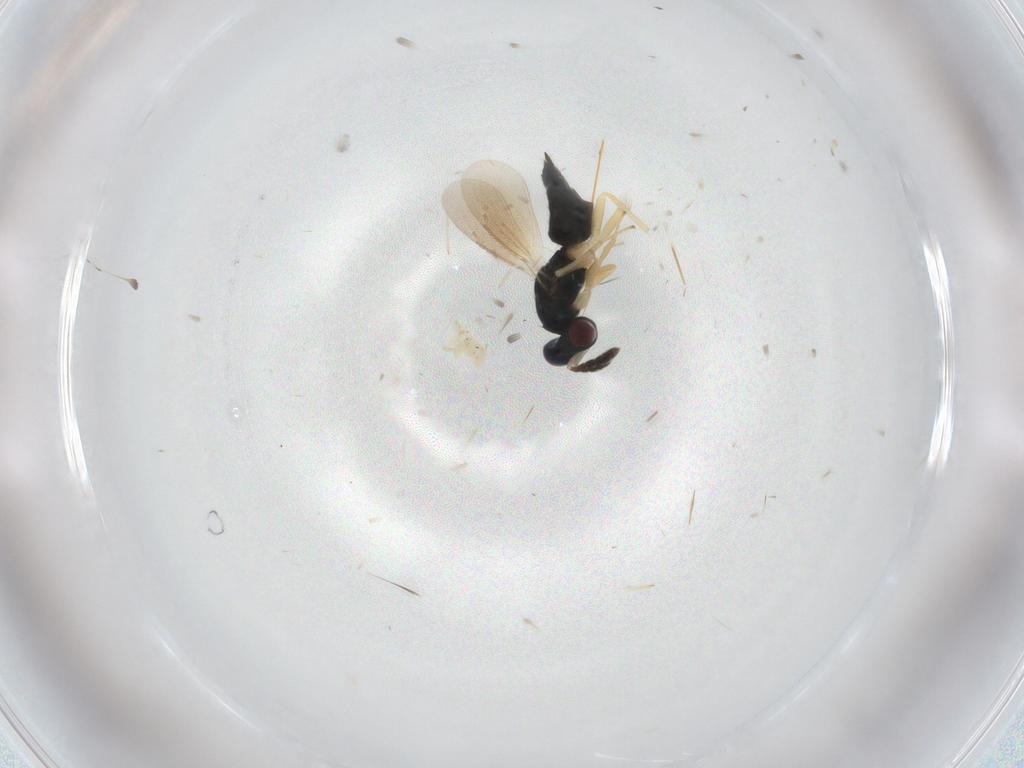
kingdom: Animalia
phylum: Arthropoda
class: Insecta
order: Hymenoptera
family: Eulophidae
